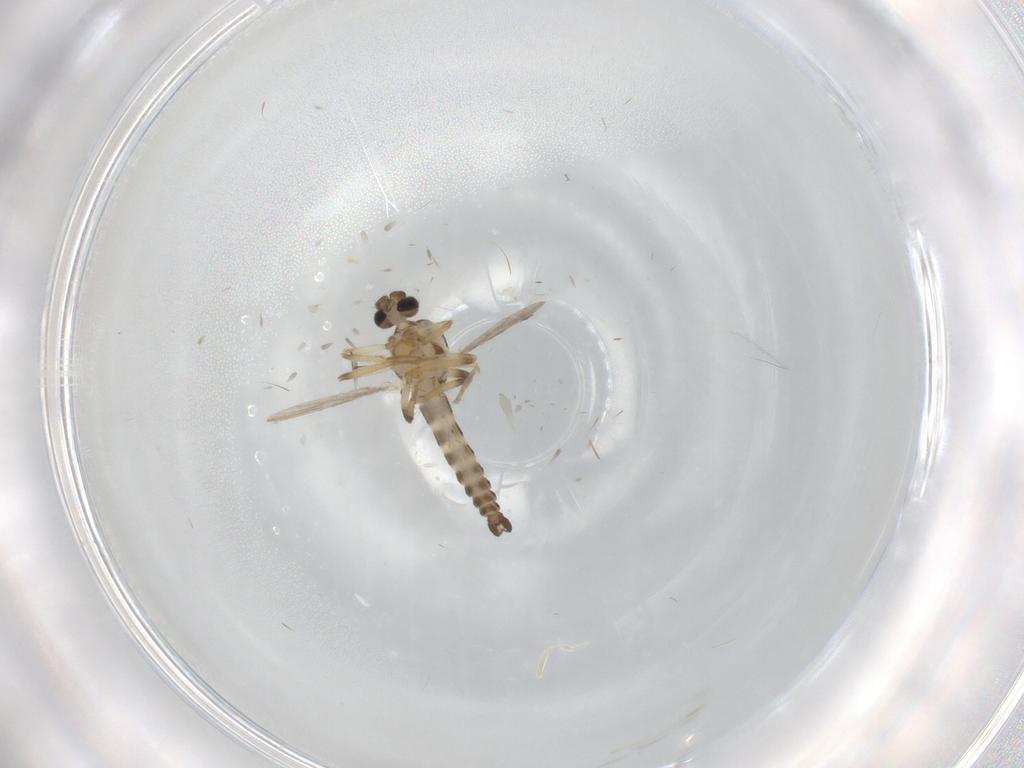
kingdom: Animalia
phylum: Arthropoda
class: Insecta
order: Diptera
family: Ceratopogonidae
